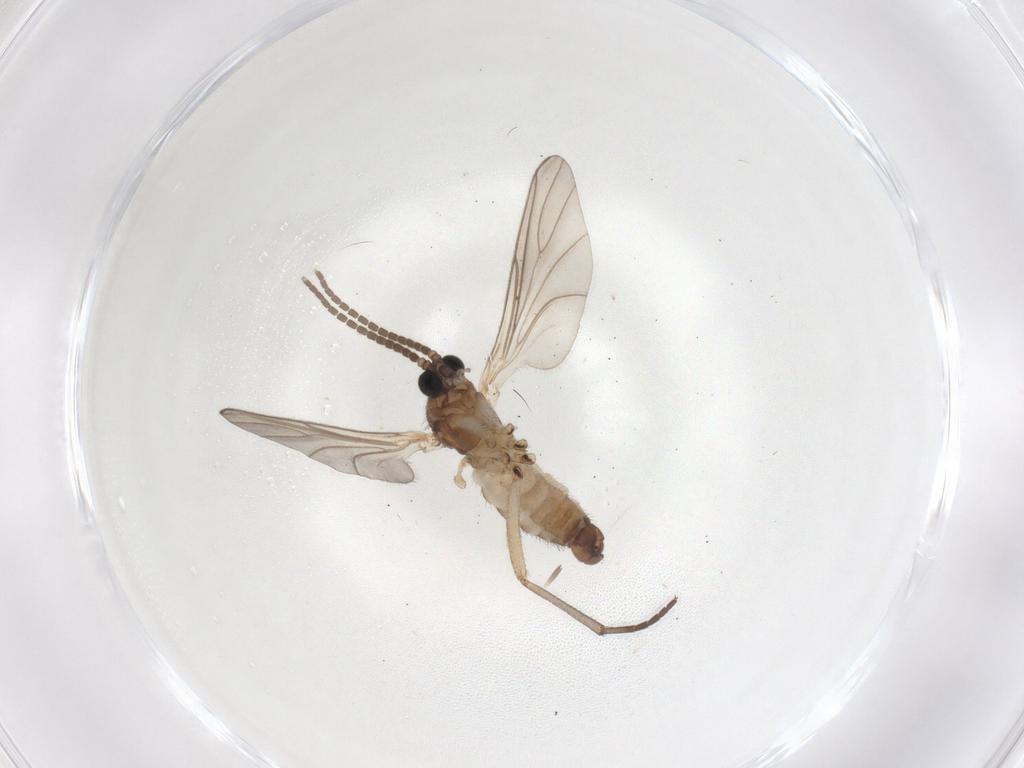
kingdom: Animalia
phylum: Arthropoda
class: Insecta
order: Diptera
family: Sciaridae
